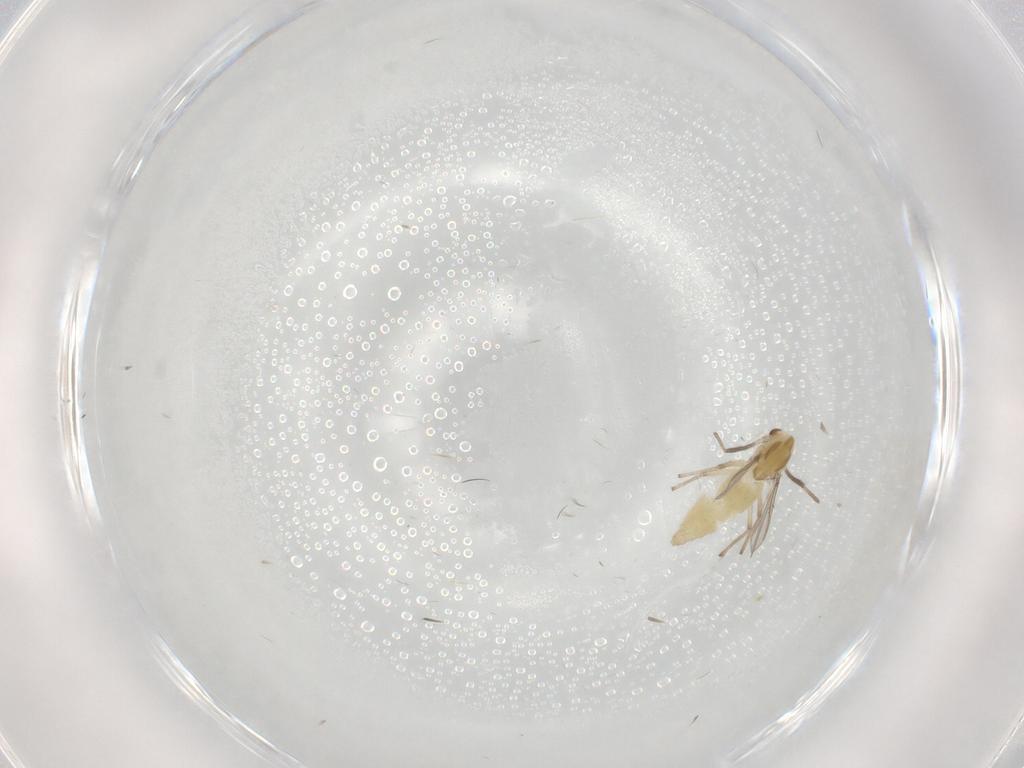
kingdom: Animalia
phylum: Arthropoda
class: Insecta
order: Diptera
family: Chironomidae
